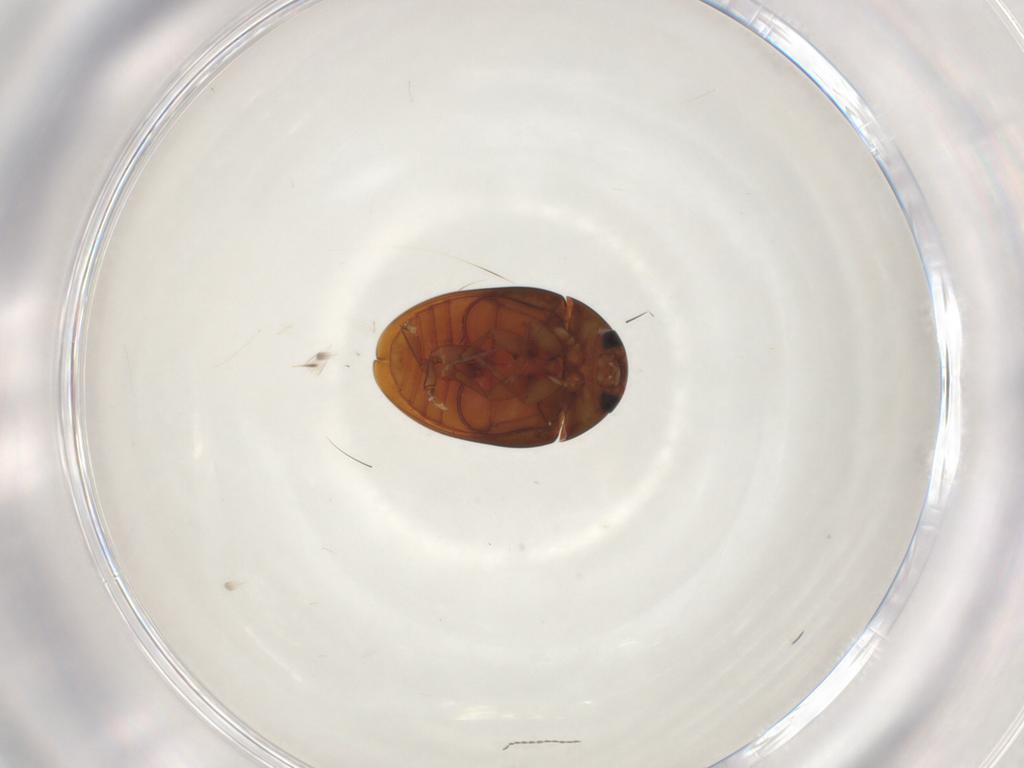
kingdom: Animalia
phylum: Arthropoda
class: Insecta
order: Coleoptera
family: Phalacridae
